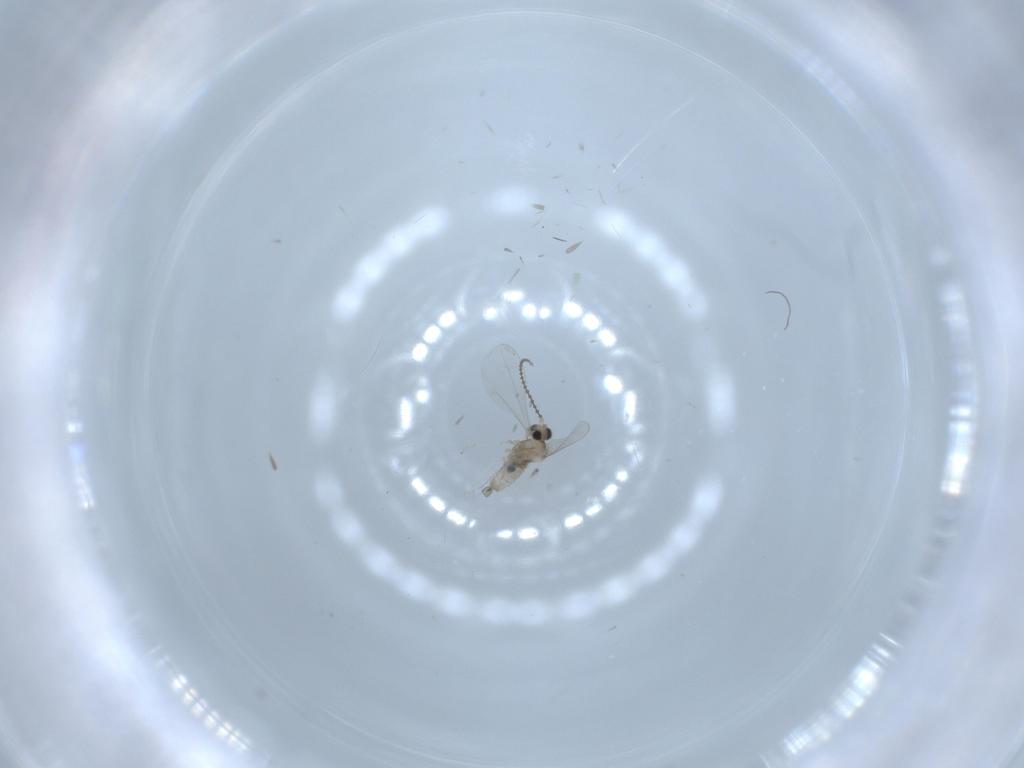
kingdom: Animalia
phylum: Arthropoda
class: Insecta
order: Diptera
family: Cecidomyiidae
